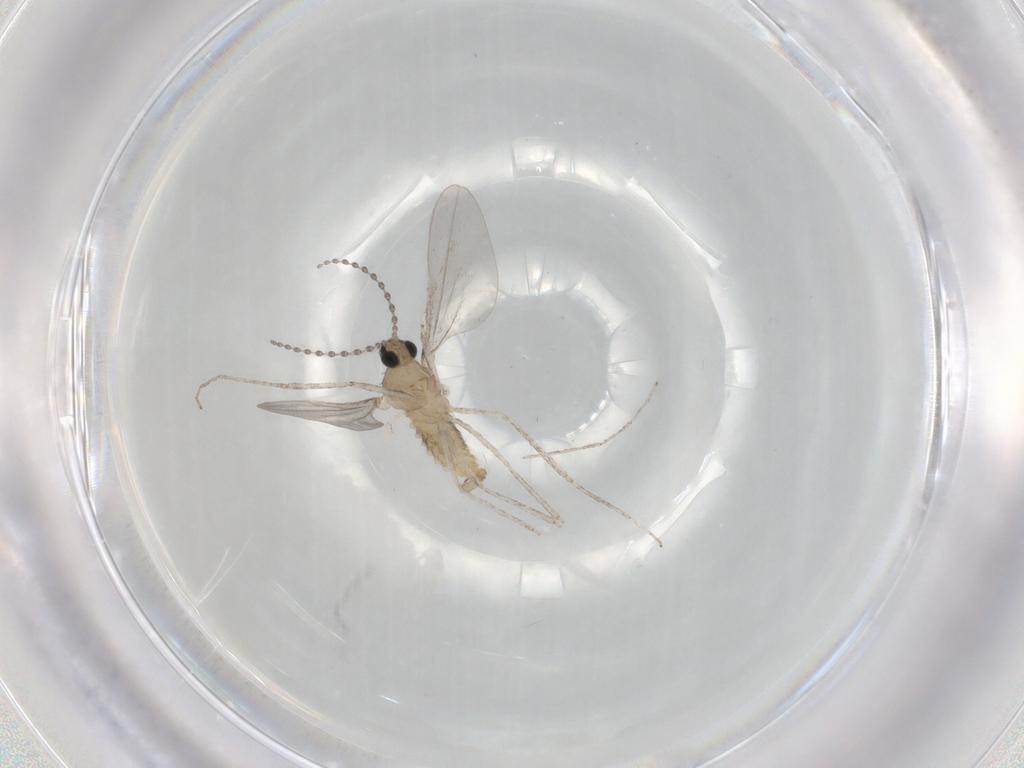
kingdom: Animalia
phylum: Arthropoda
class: Insecta
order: Diptera
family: Cecidomyiidae
